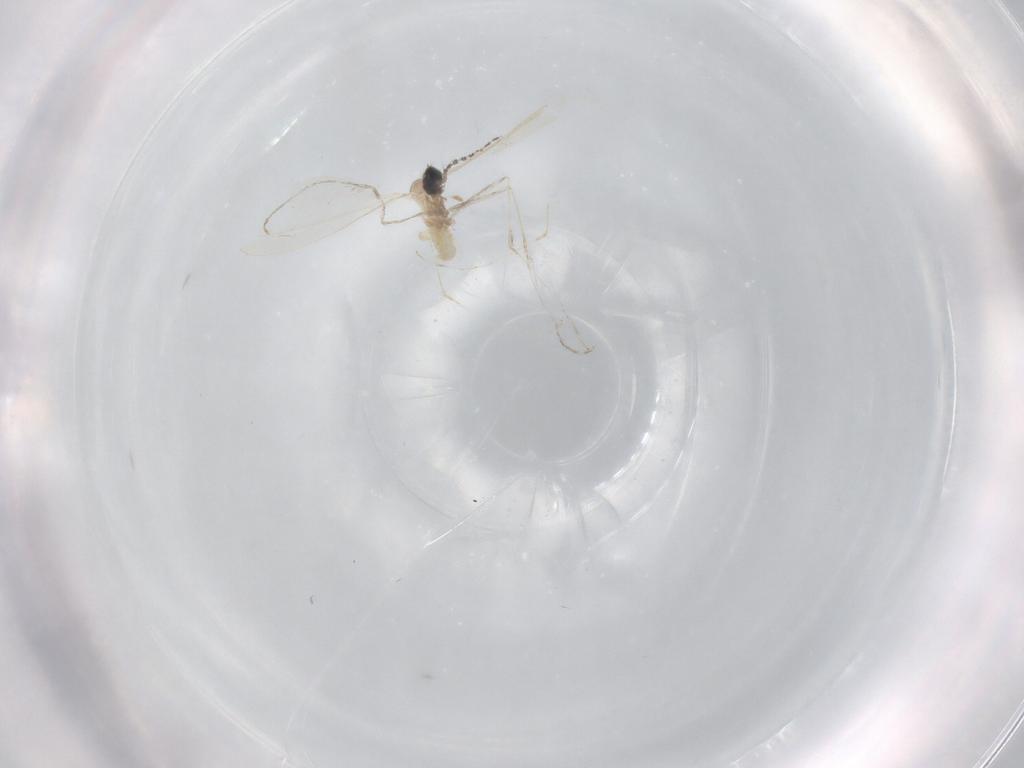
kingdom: Animalia
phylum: Arthropoda
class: Insecta
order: Diptera
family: Cecidomyiidae
